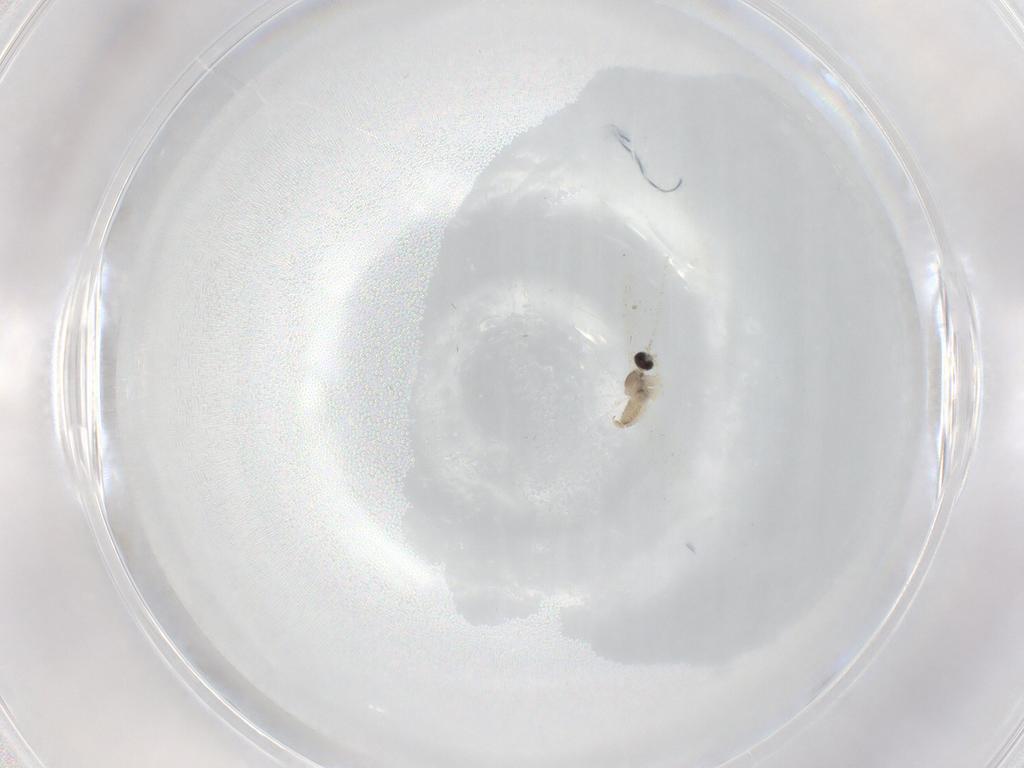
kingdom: Animalia
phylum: Arthropoda
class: Insecta
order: Diptera
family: Cecidomyiidae
